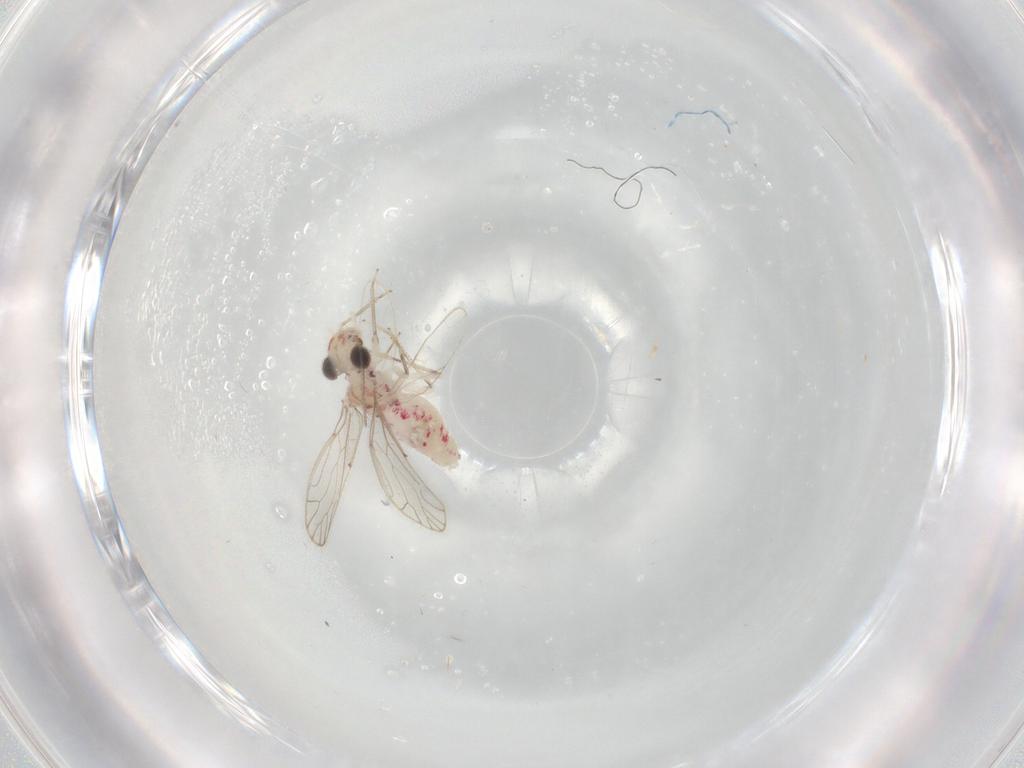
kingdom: Animalia
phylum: Arthropoda
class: Insecta
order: Psocodea
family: Caeciliusidae
